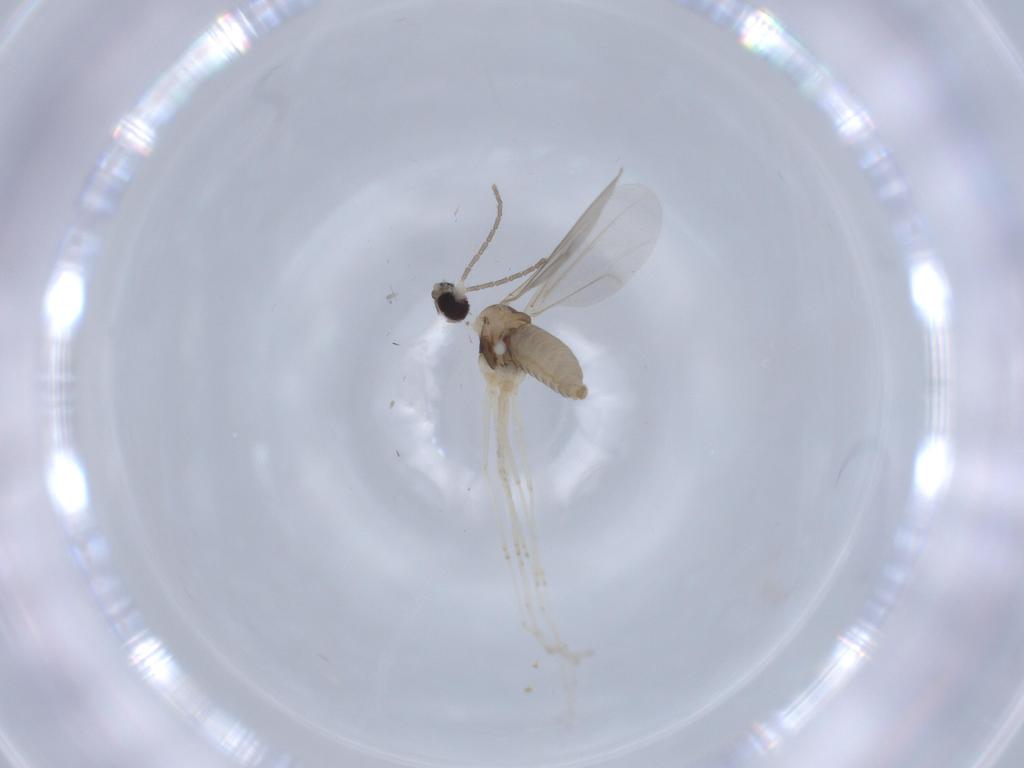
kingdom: Animalia
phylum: Arthropoda
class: Insecta
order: Diptera
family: Cecidomyiidae
